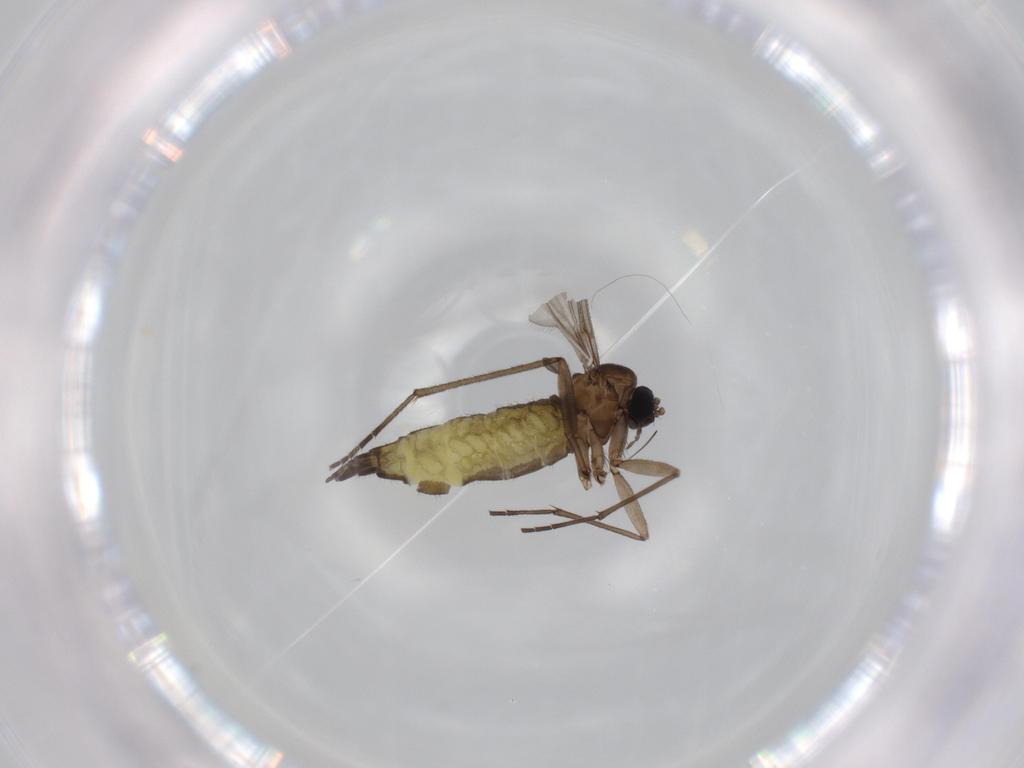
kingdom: Animalia
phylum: Arthropoda
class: Insecta
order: Diptera
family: Sciaridae
